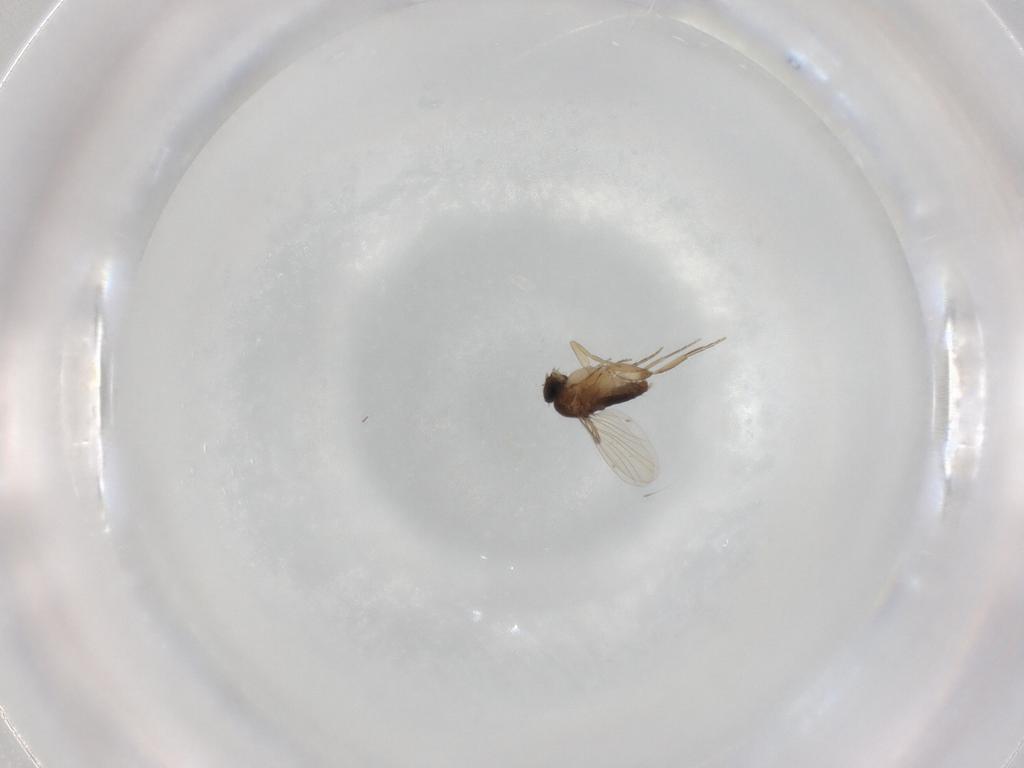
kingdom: Animalia
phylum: Arthropoda
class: Insecta
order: Diptera
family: Phoridae
